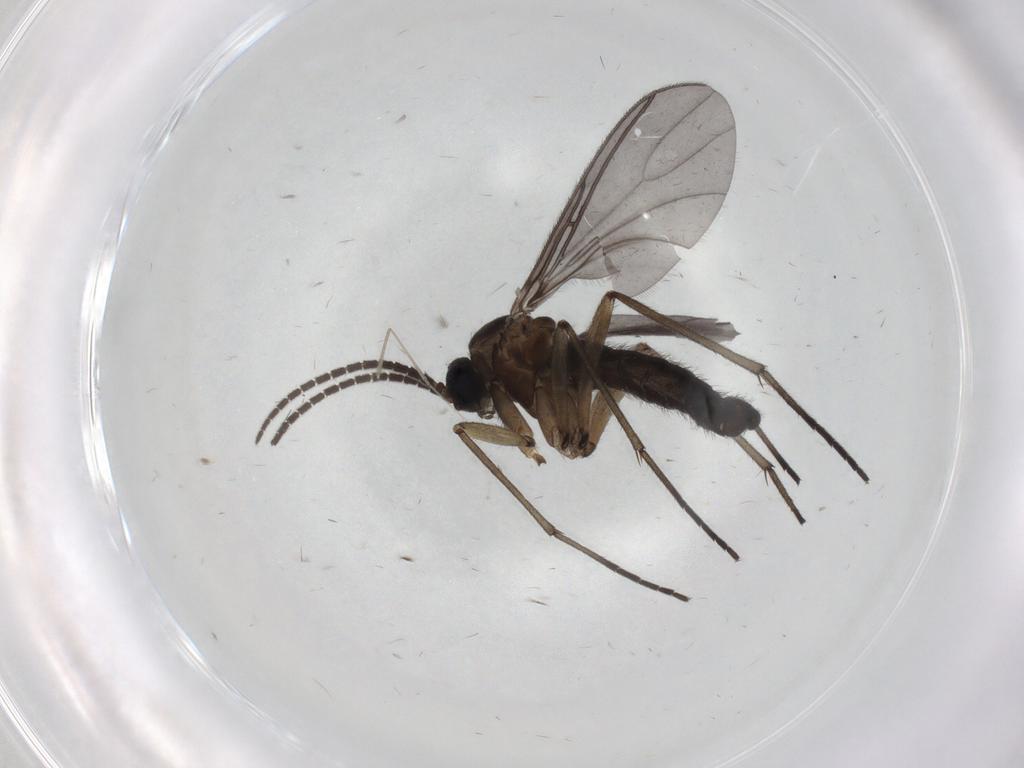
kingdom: Animalia
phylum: Arthropoda
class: Insecta
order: Diptera
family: Sciaridae
